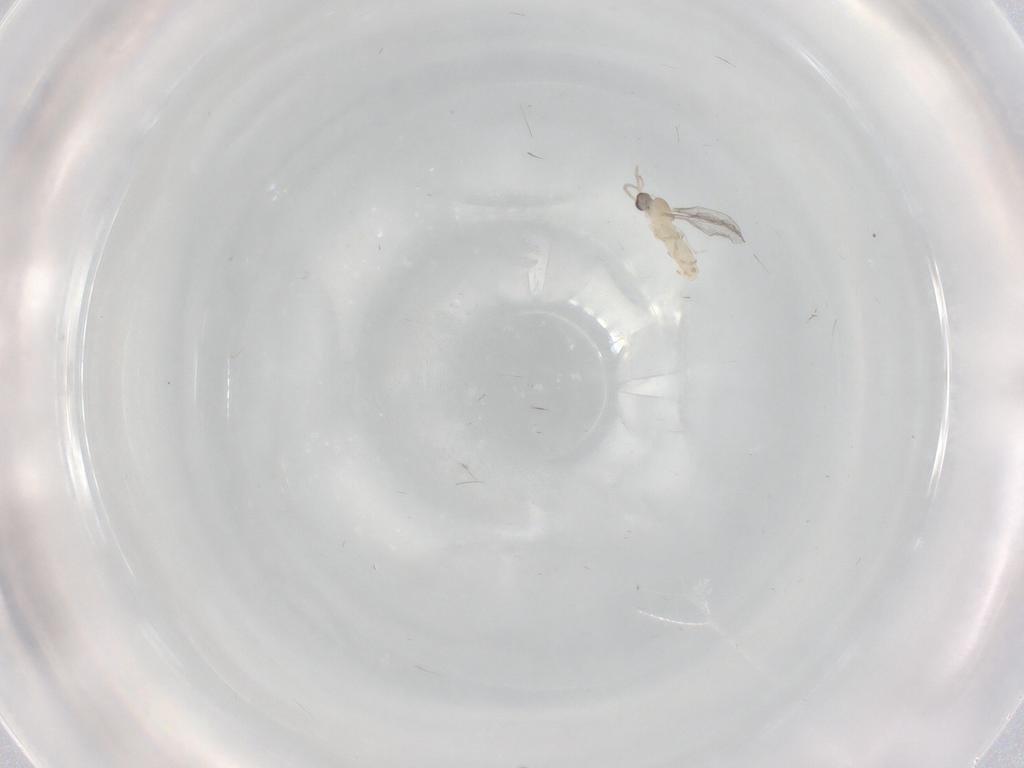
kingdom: Animalia
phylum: Arthropoda
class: Insecta
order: Diptera
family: Cecidomyiidae
